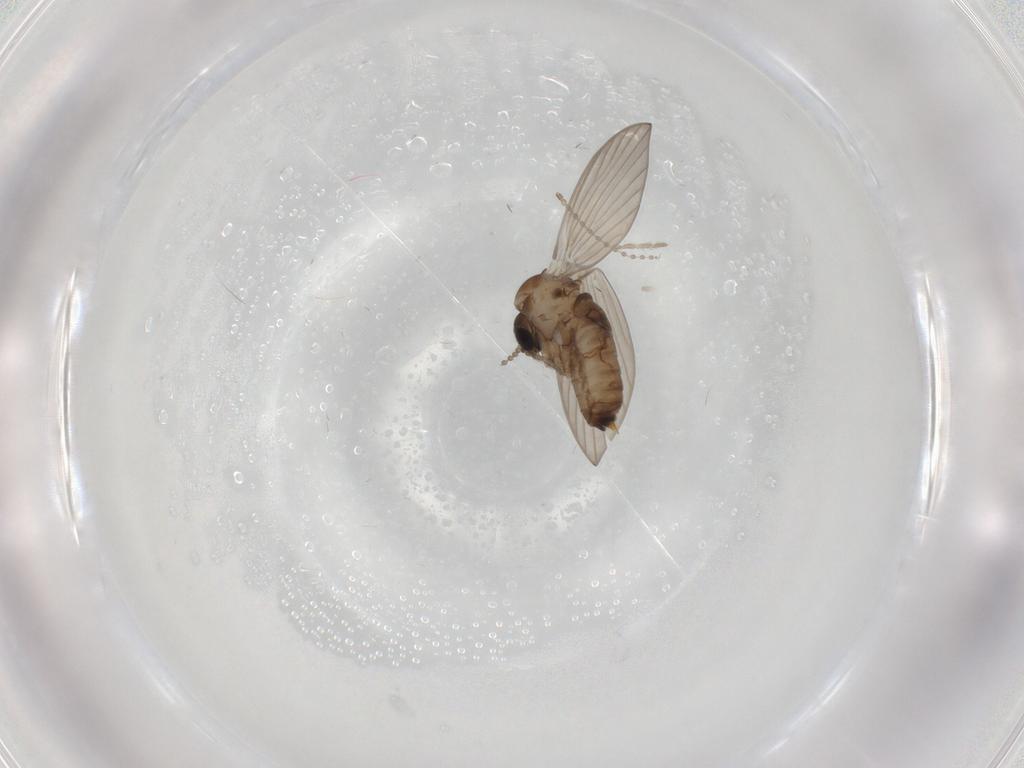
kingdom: Animalia
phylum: Arthropoda
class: Insecta
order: Diptera
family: Psychodidae
